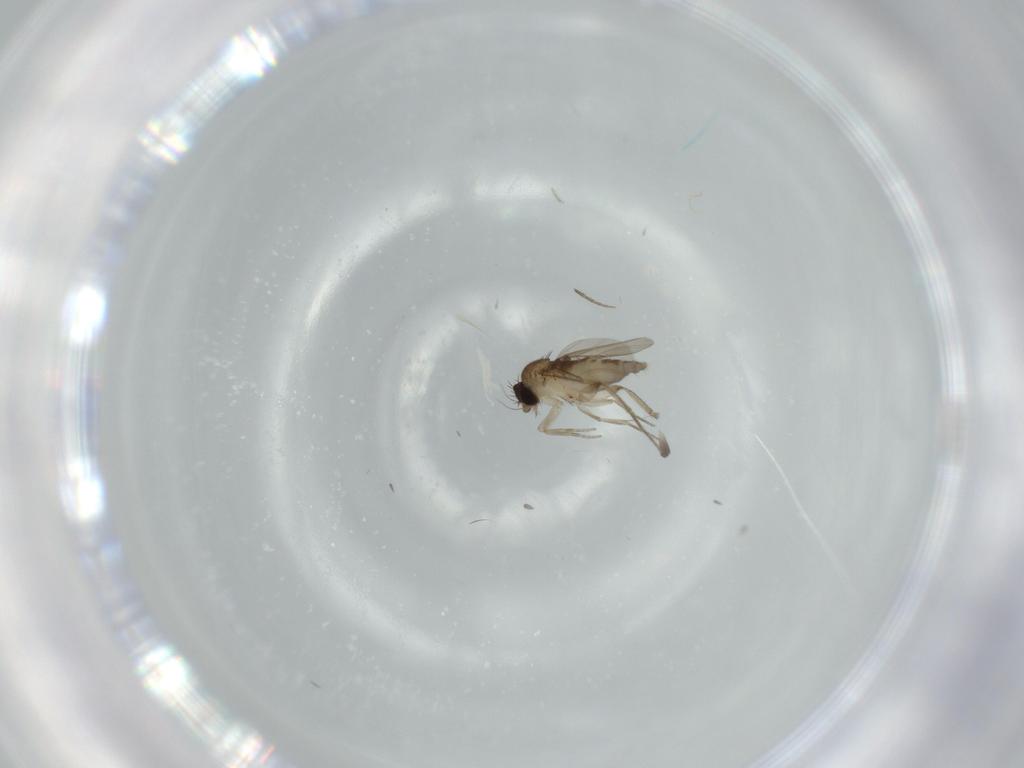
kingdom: Animalia
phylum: Arthropoda
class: Insecta
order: Diptera
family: Phoridae
